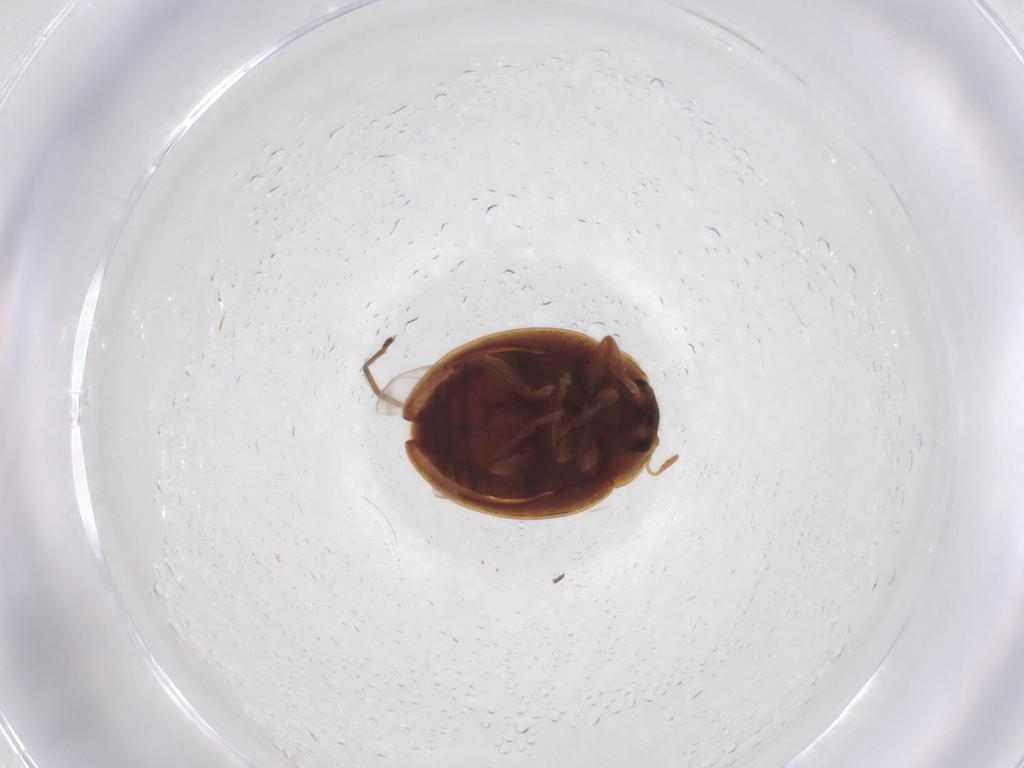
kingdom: Animalia
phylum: Arthropoda
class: Insecta
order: Coleoptera
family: Coccinellidae
